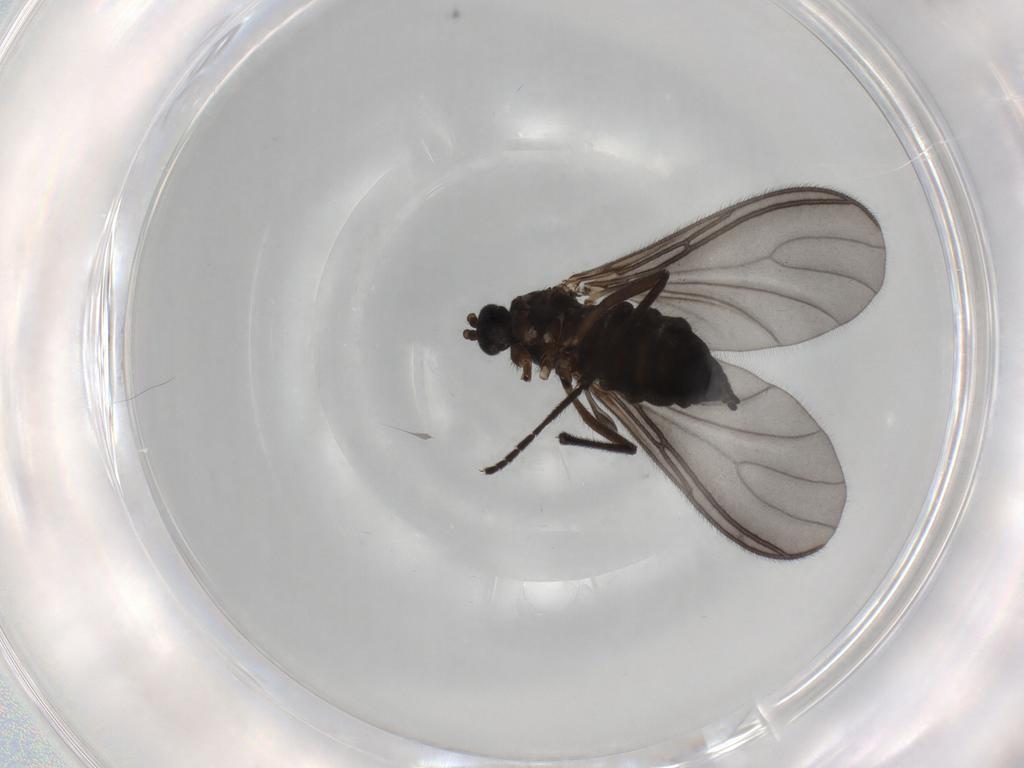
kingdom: Animalia
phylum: Arthropoda
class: Insecta
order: Diptera
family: Sciaridae
